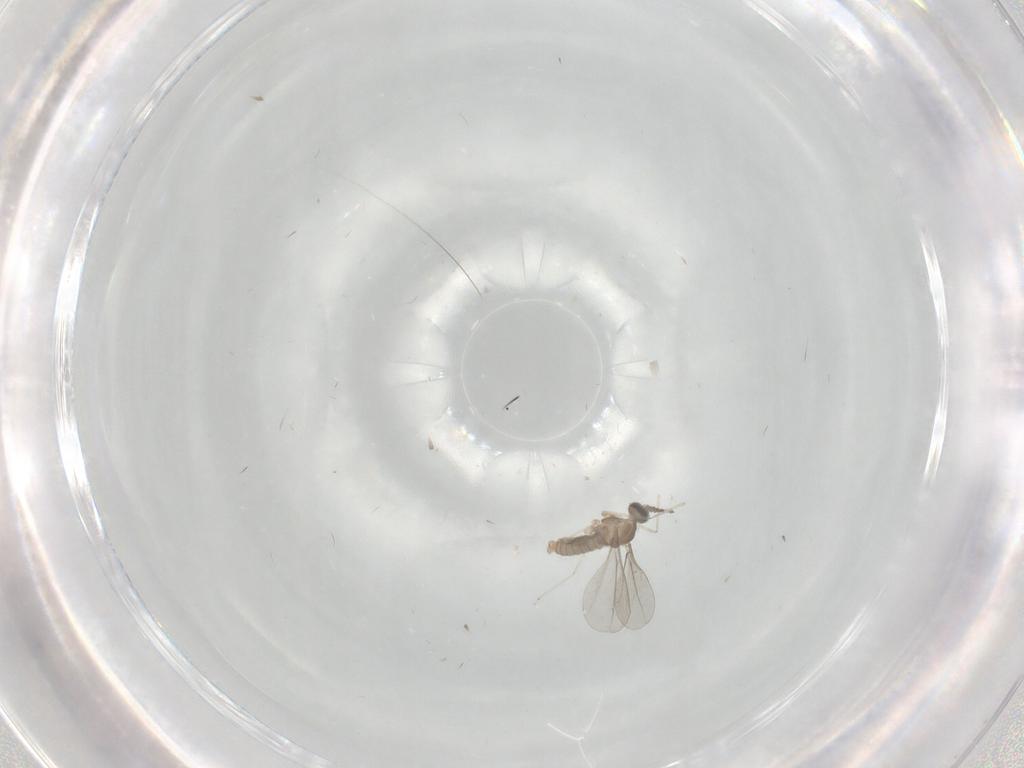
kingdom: Animalia
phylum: Arthropoda
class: Insecta
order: Diptera
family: Cecidomyiidae
